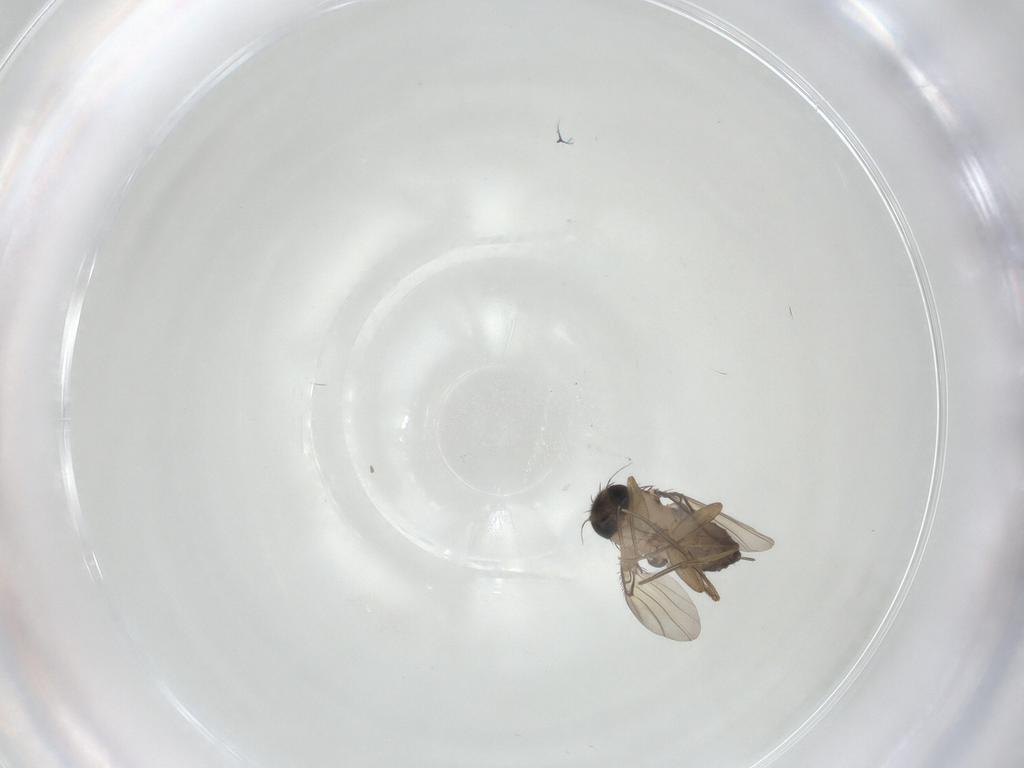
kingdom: Animalia
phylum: Arthropoda
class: Insecta
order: Diptera
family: Phoridae
